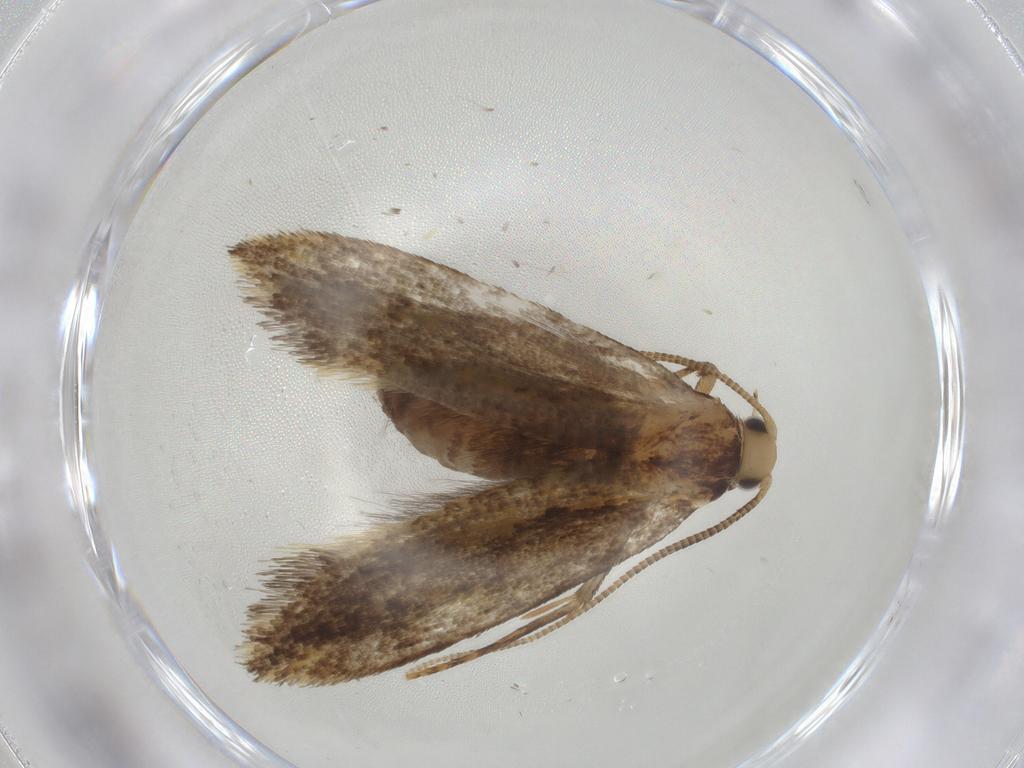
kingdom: Animalia
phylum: Arthropoda
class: Insecta
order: Lepidoptera
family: Tineidae
